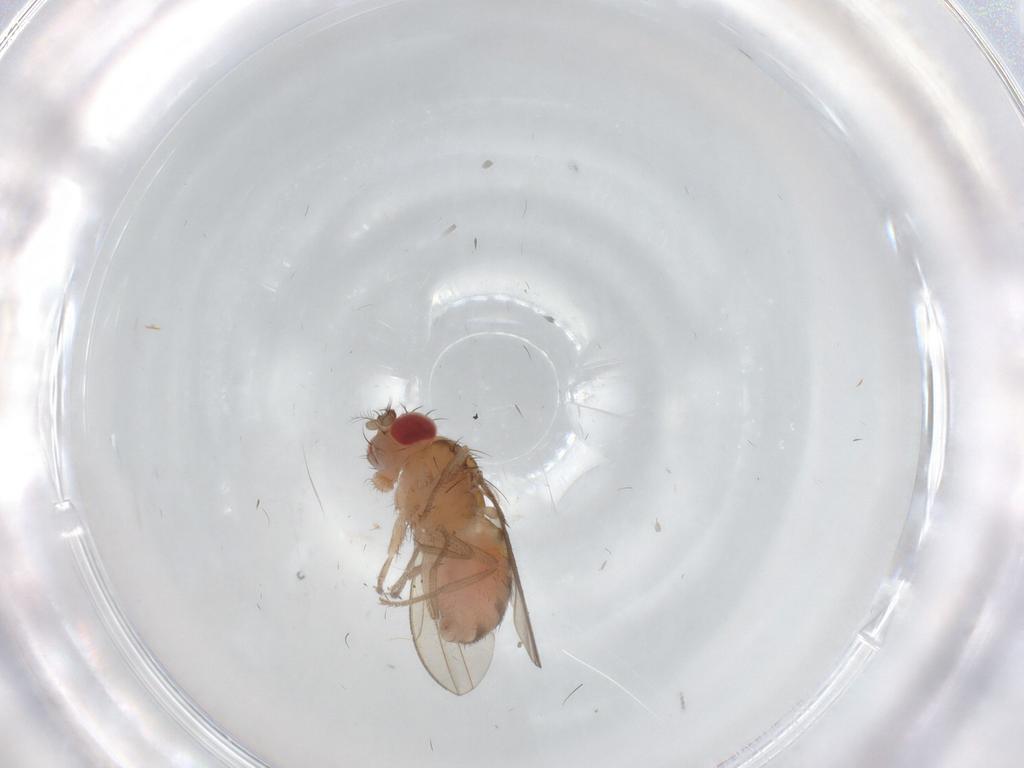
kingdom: Animalia
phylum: Arthropoda
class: Insecta
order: Diptera
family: Drosophilidae
